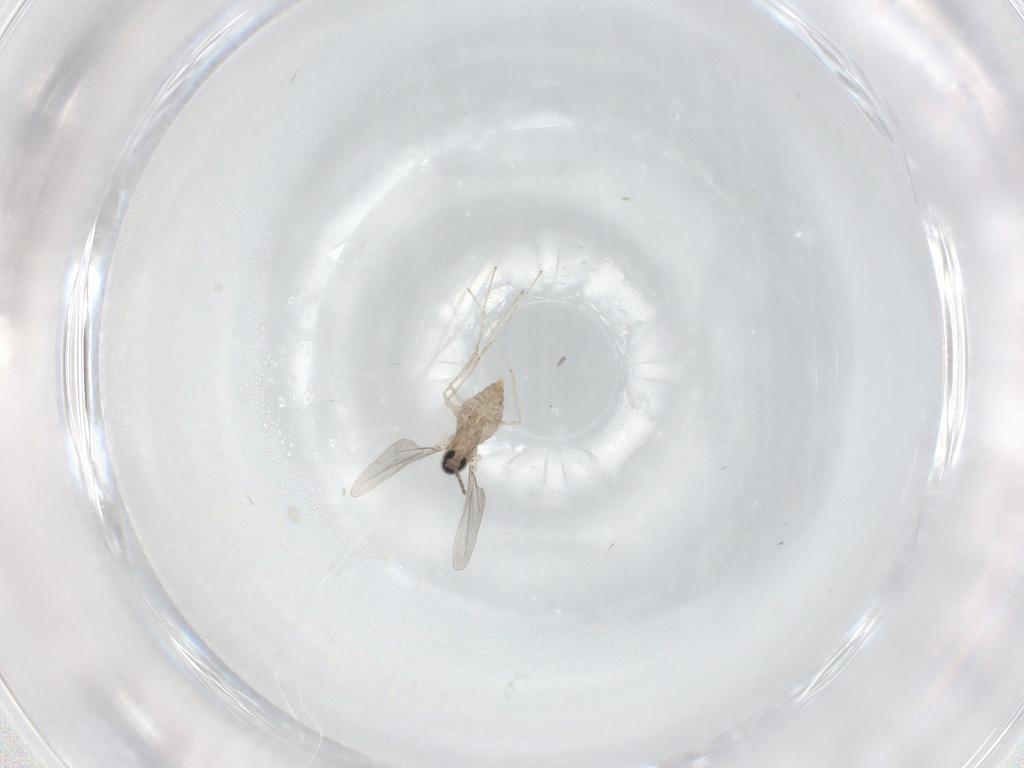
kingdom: Animalia
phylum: Arthropoda
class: Insecta
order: Diptera
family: Cecidomyiidae
